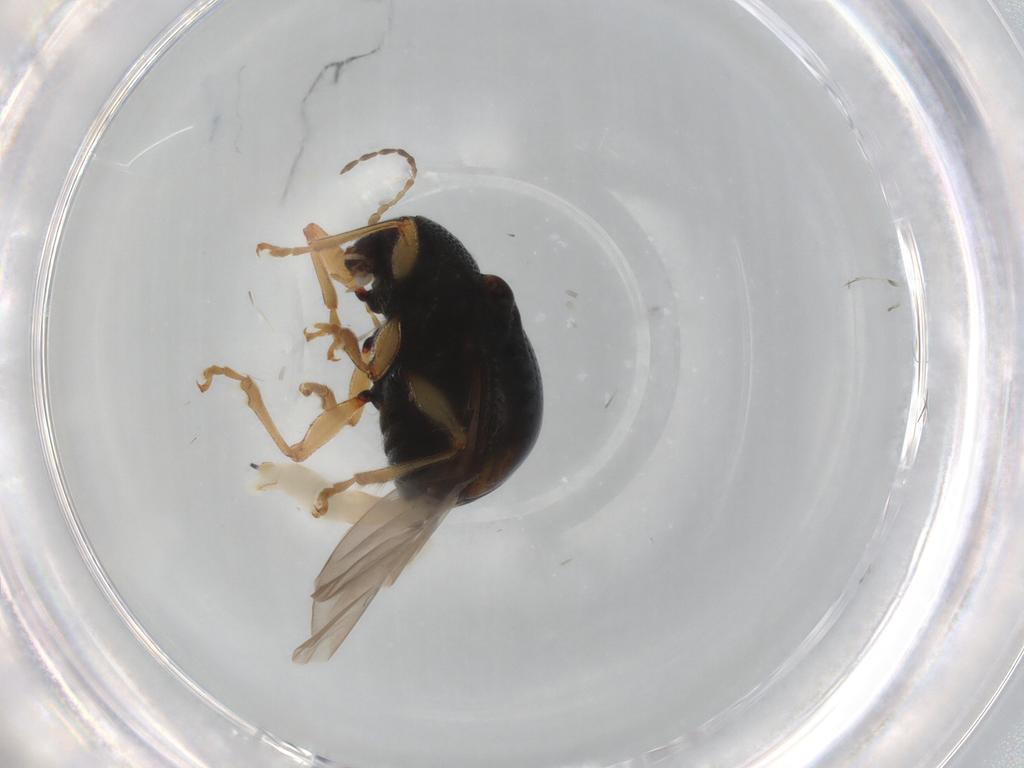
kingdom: Animalia
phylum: Arthropoda
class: Insecta
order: Coleoptera
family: Chrysomelidae
